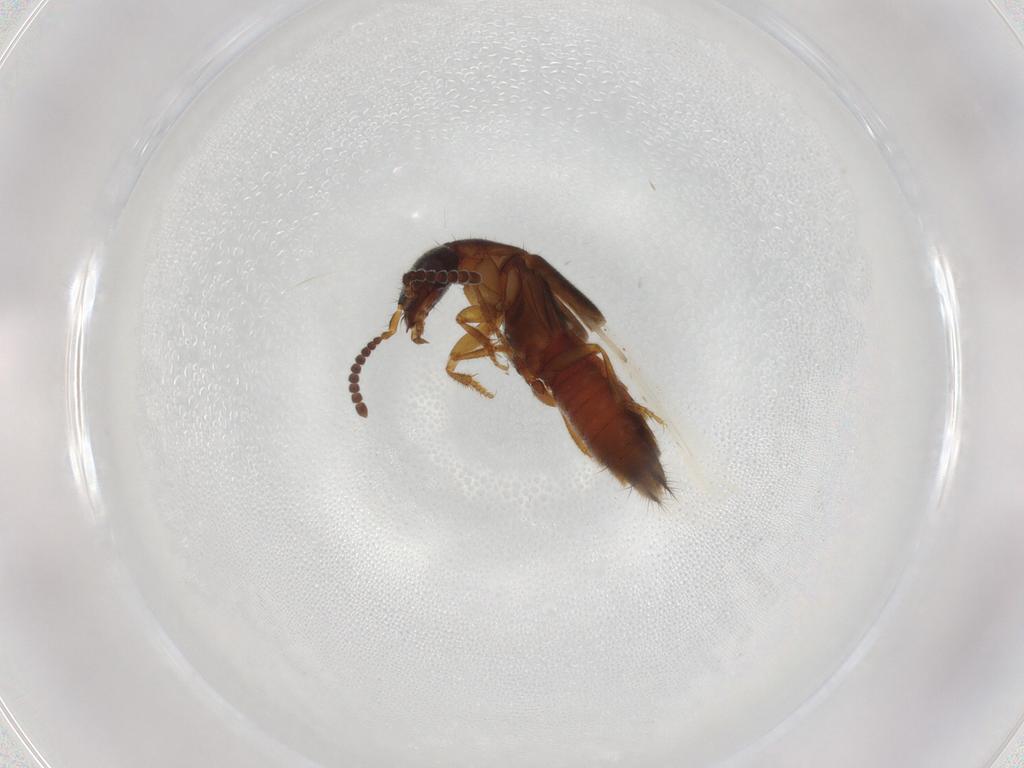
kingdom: Animalia
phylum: Arthropoda
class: Insecta
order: Coleoptera
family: Staphylinidae
